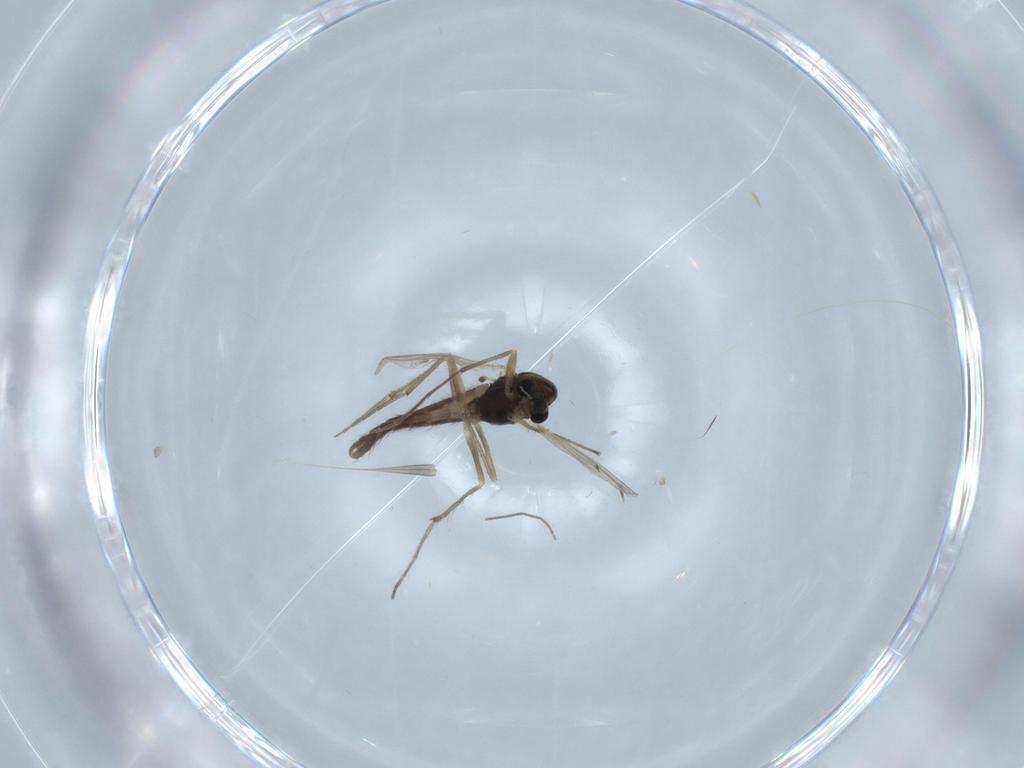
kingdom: Animalia
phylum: Arthropoda
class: Insecta
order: Diptera
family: Chironomidae
